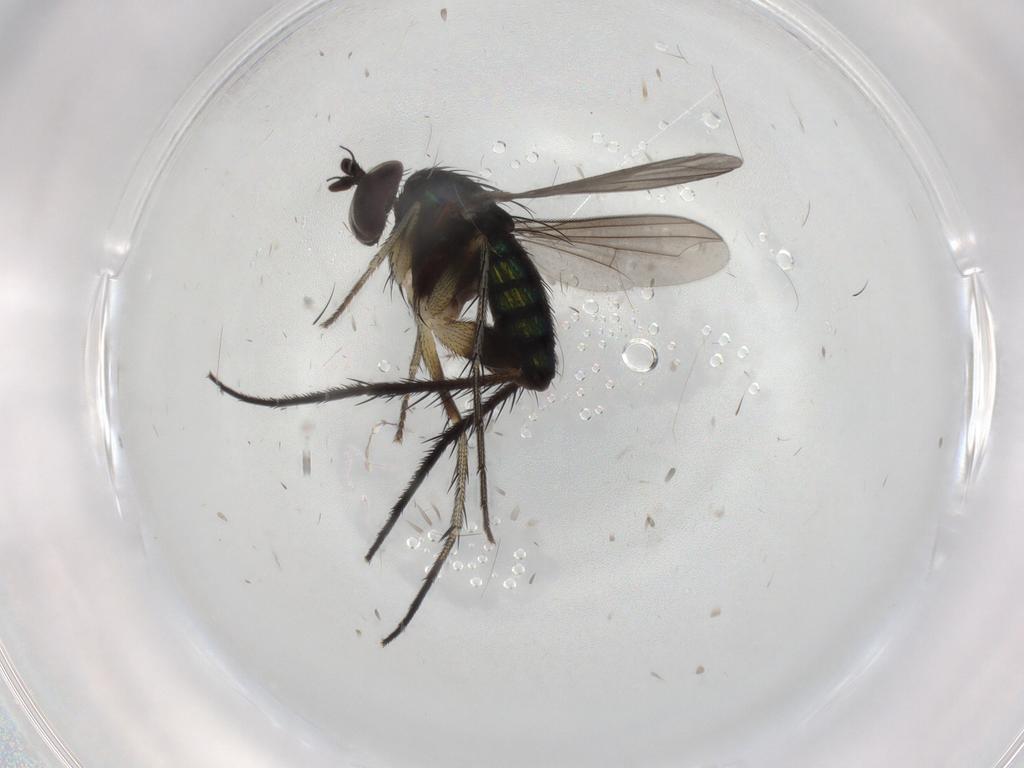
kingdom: Animalia
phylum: Arthropoda
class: Insecta
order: Diptera
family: Dolichopodidae
